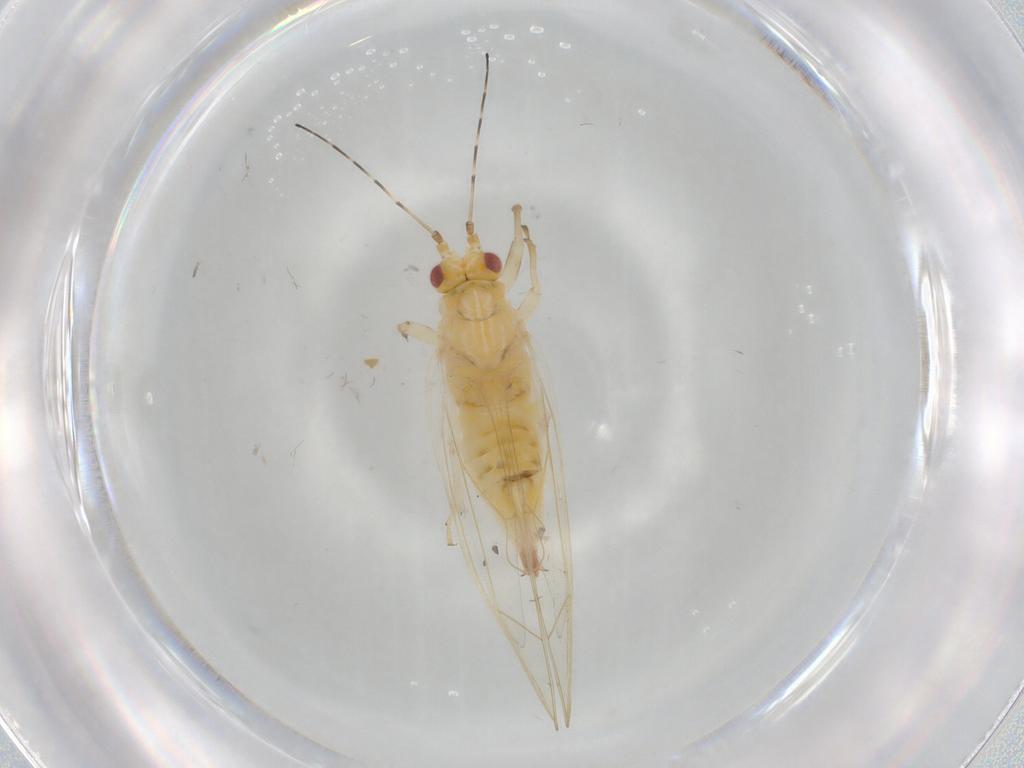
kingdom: Animalia
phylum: Arthropoda
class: Insecta
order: Hemiptera
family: Carsidaridae
